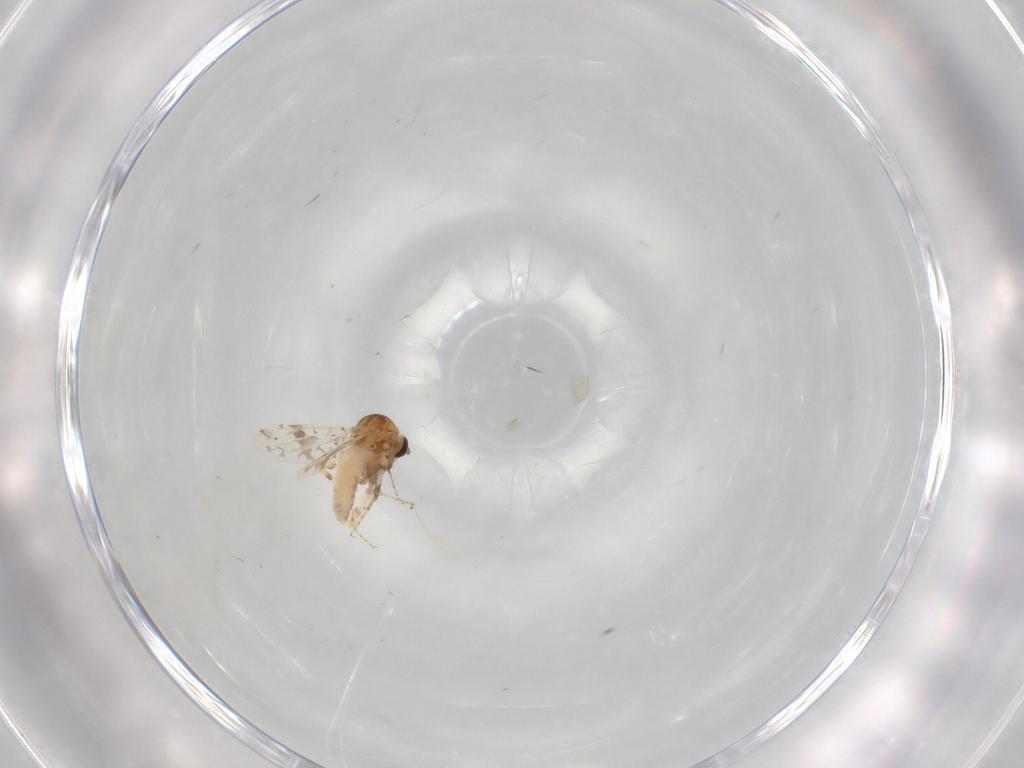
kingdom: Animalia
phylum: Arthropoda
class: Insecta
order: Diptera
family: Cecidomyiidae
